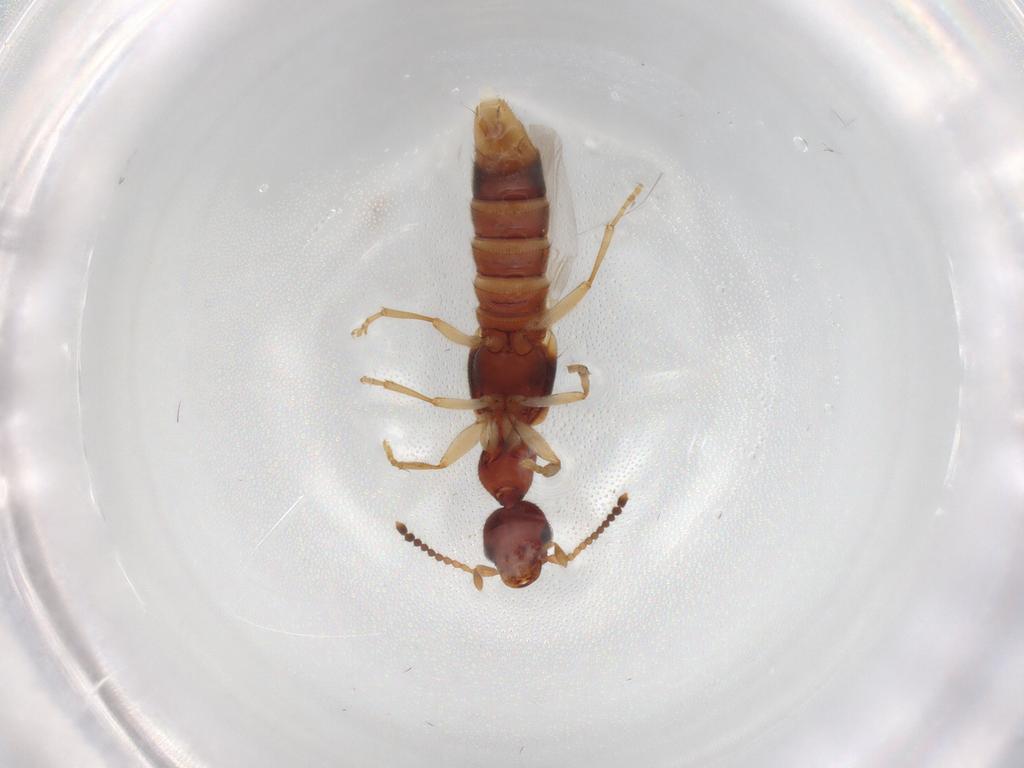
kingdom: Animalia
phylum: Arthropoda
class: Insecta
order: Coleoptera
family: Staphylinidae
